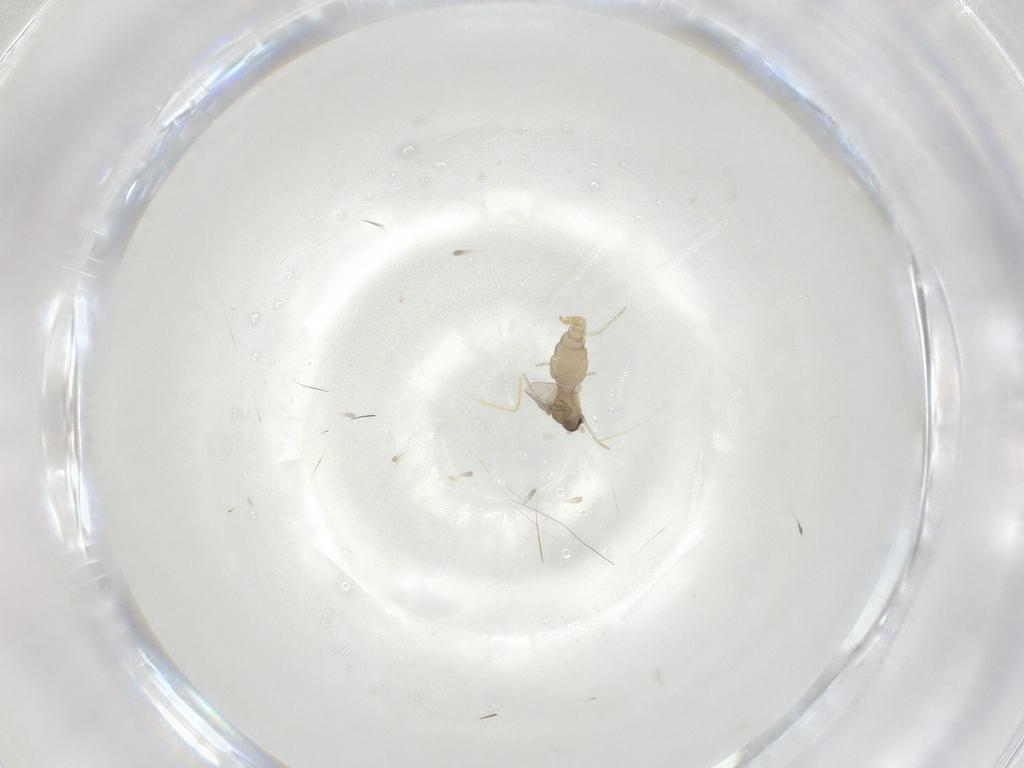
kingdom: Animalia
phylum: Arthropoda
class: Insecta
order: Diptera
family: Cecidomyiidae
